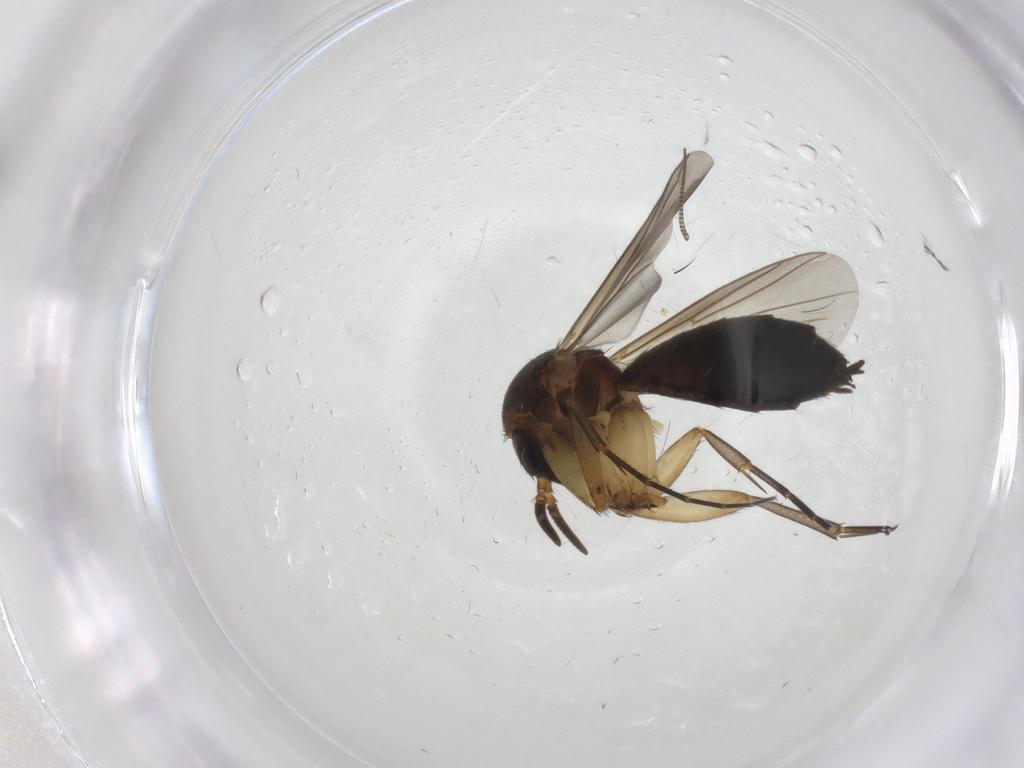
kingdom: Animalia
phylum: Arthropoda
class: Insecta
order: Diptera
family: Mycetophilidae
